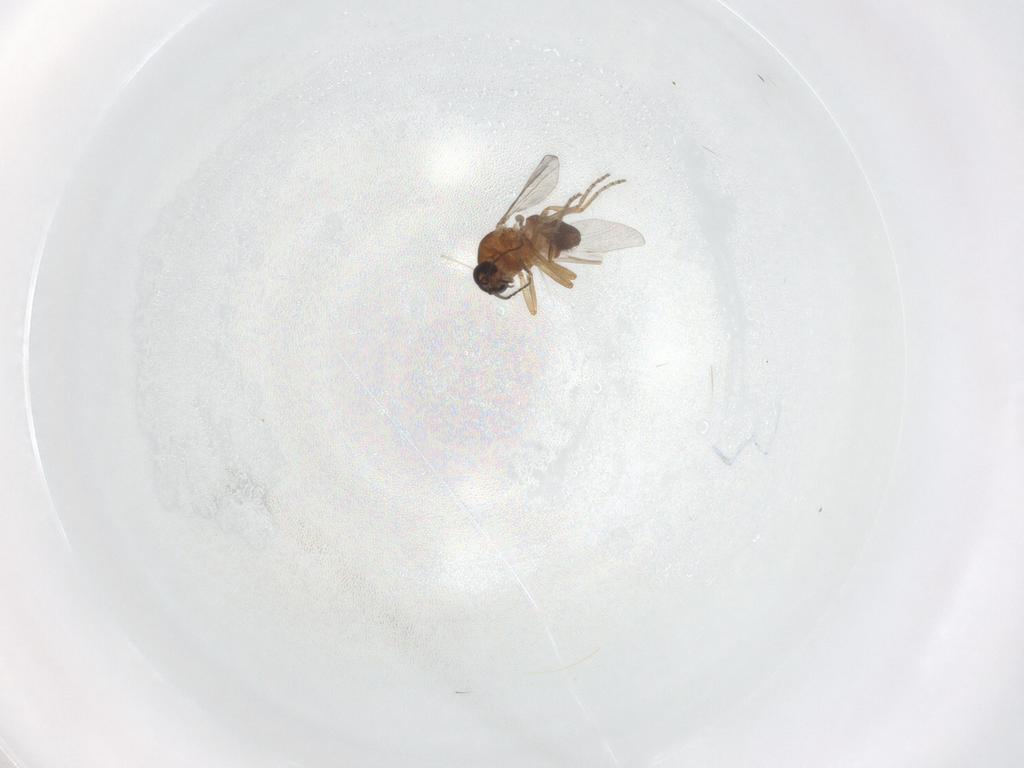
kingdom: Animalia
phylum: Arthropoda
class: Insecta
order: Diptera
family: Ceratopogonidae
